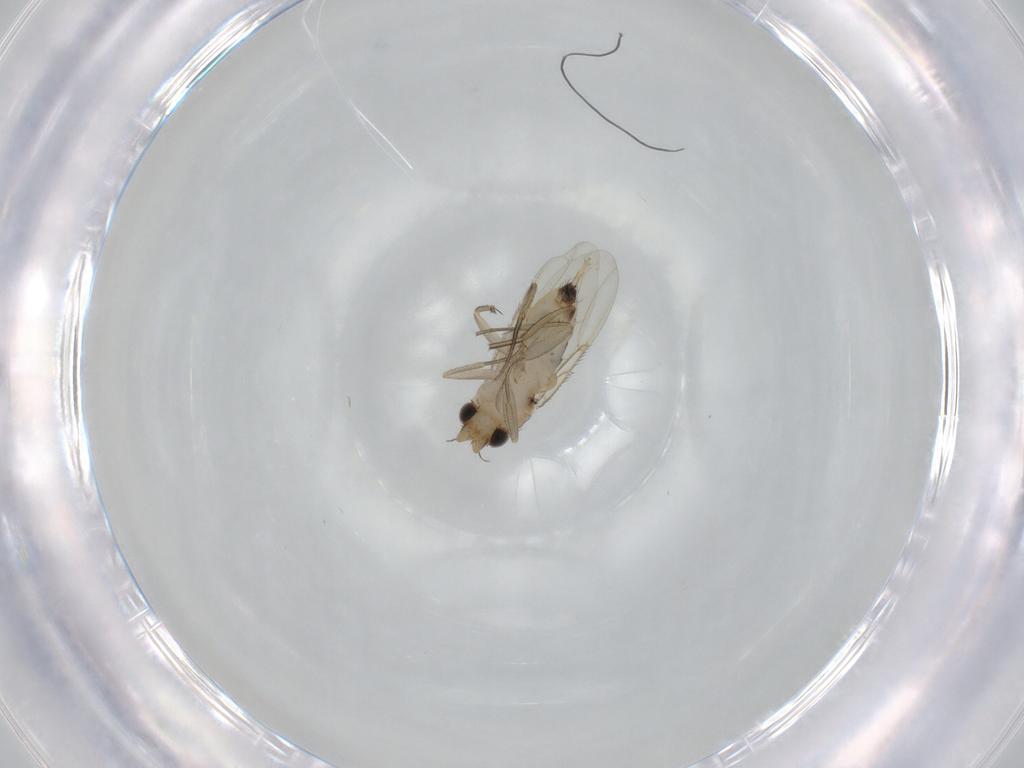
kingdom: Animalia
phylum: Arthropoda
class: Insecta
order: Diptera
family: Phoridae
